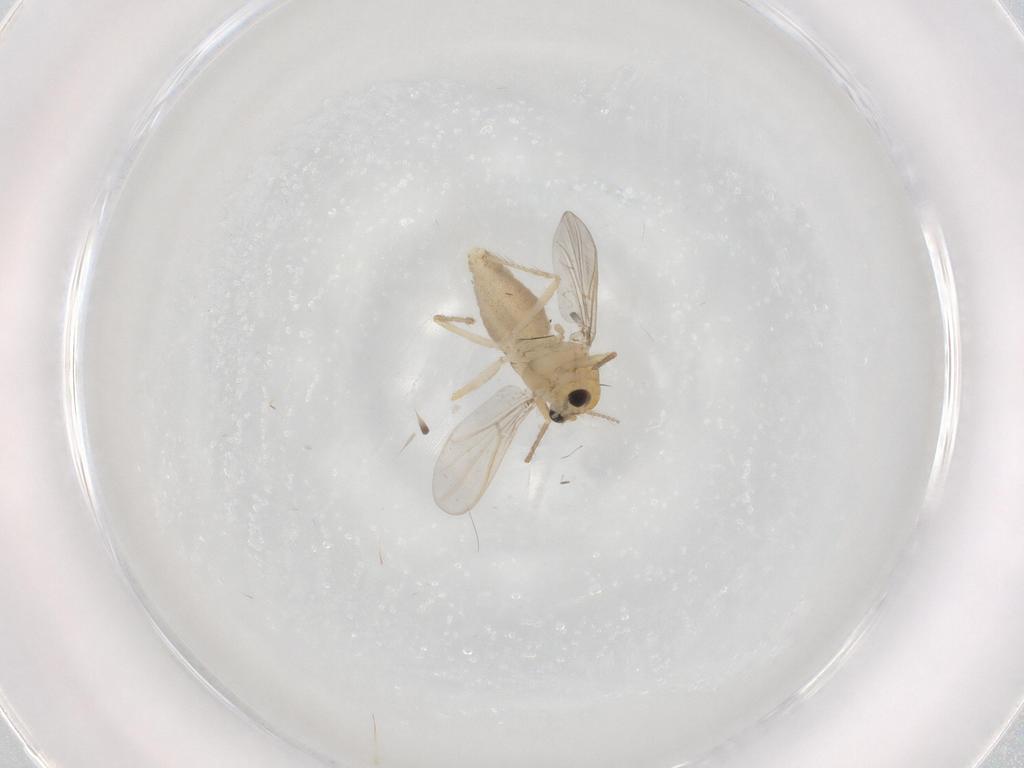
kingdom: Animalia
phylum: Arthropoda
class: Insecta
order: Diptera
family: Chironomidae
